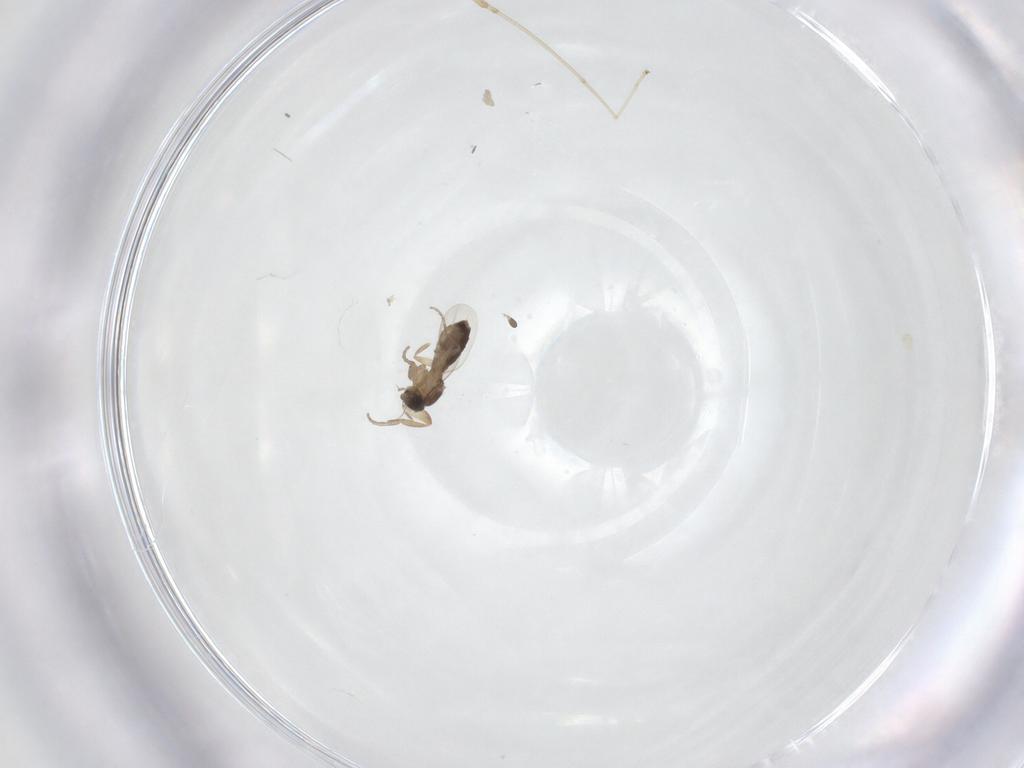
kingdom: Animalia
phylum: Arthropoda
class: Insecta
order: Diptera
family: Phoridae
